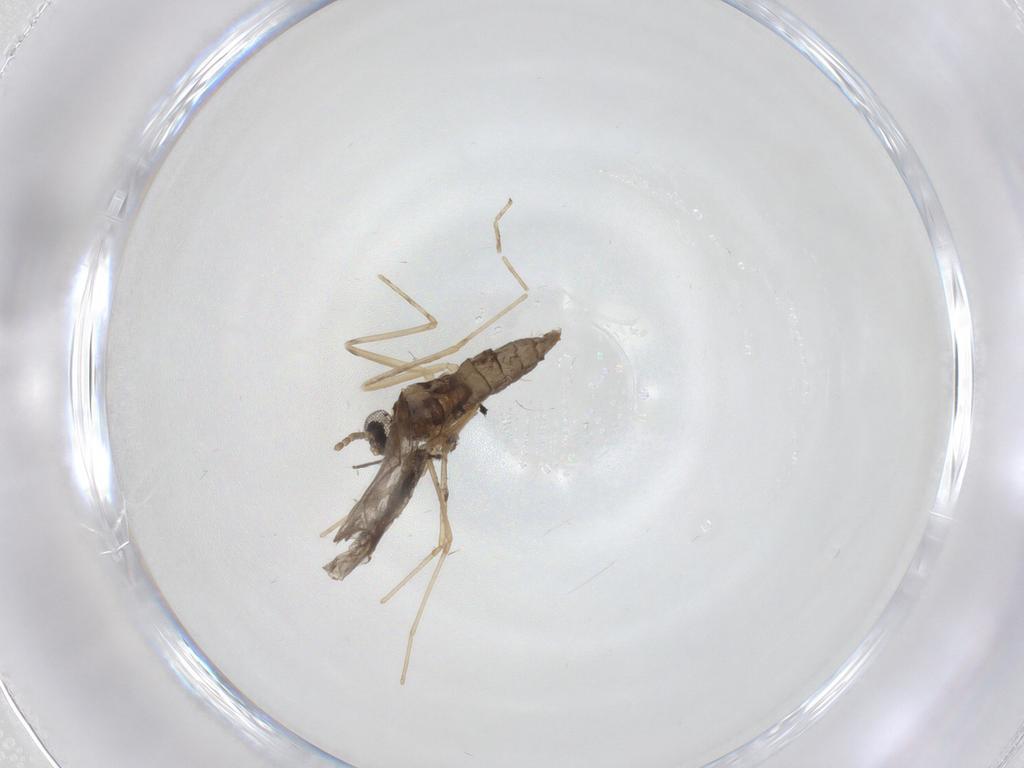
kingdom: Animalia
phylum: Arthropoda
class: Insecta
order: Diptera
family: Cecidomyiidae
